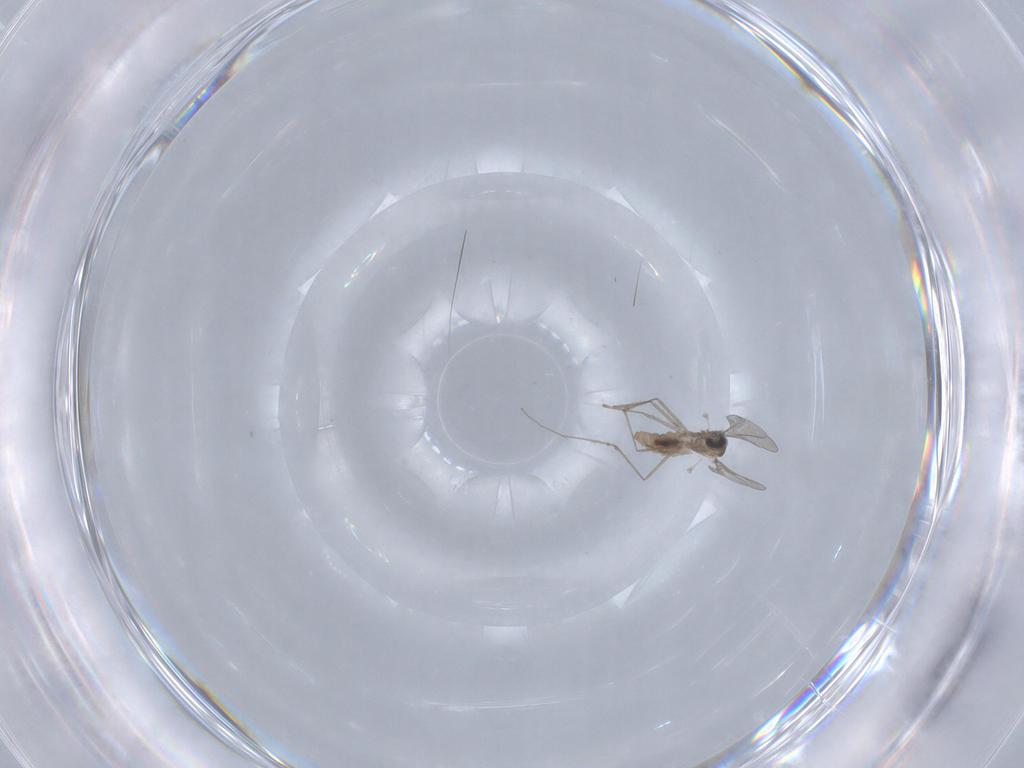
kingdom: Animalia
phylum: Arthropoda
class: Insecta
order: Diptera
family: Cecidomyiidae
